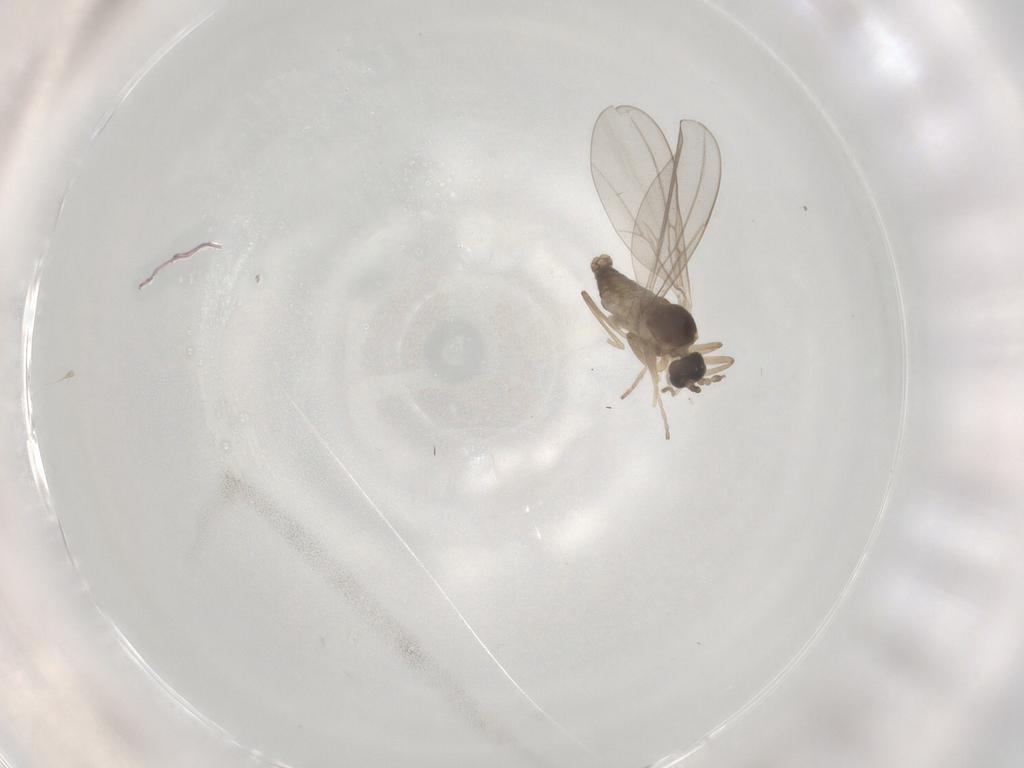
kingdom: Animalia
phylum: Arthropoda
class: Insecta
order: Diptera
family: Cecidomyiidae
